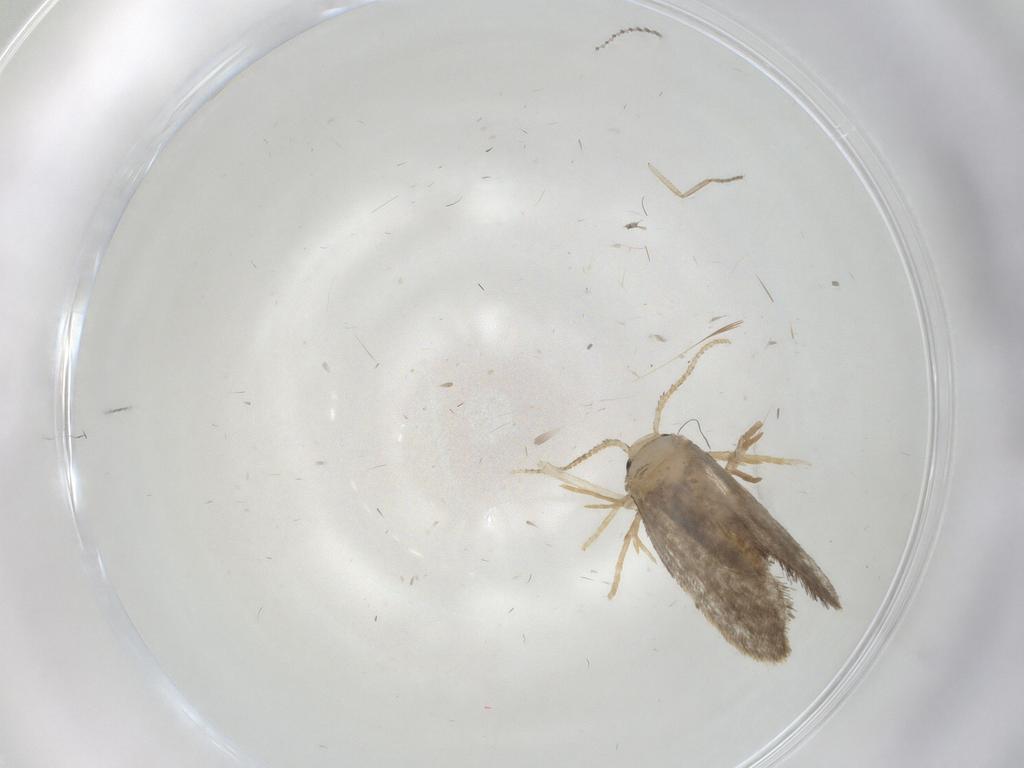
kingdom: Animalia
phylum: Arthropoda
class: Insecta
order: Lepidoptera
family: Psychidae
